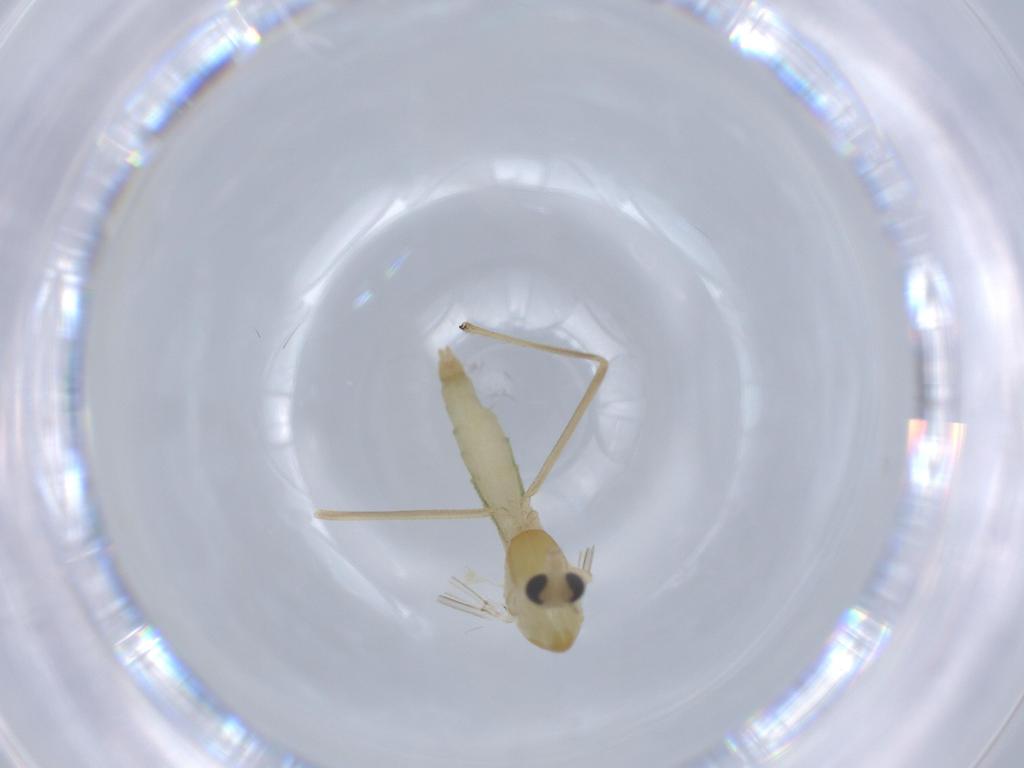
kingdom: Animalia
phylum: Arthropoda
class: Insecta
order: Diptera
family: Chironomidae
